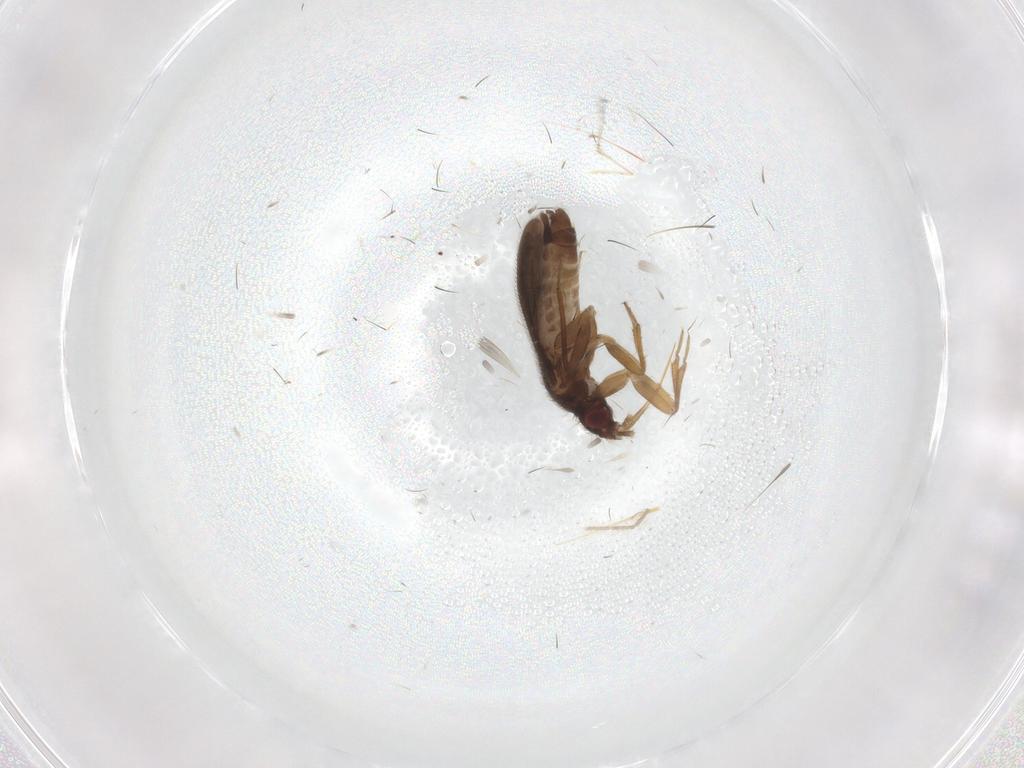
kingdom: Animalia
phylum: Arthropoda
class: Insecta
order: Hemiptera
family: Ceratocombidae
